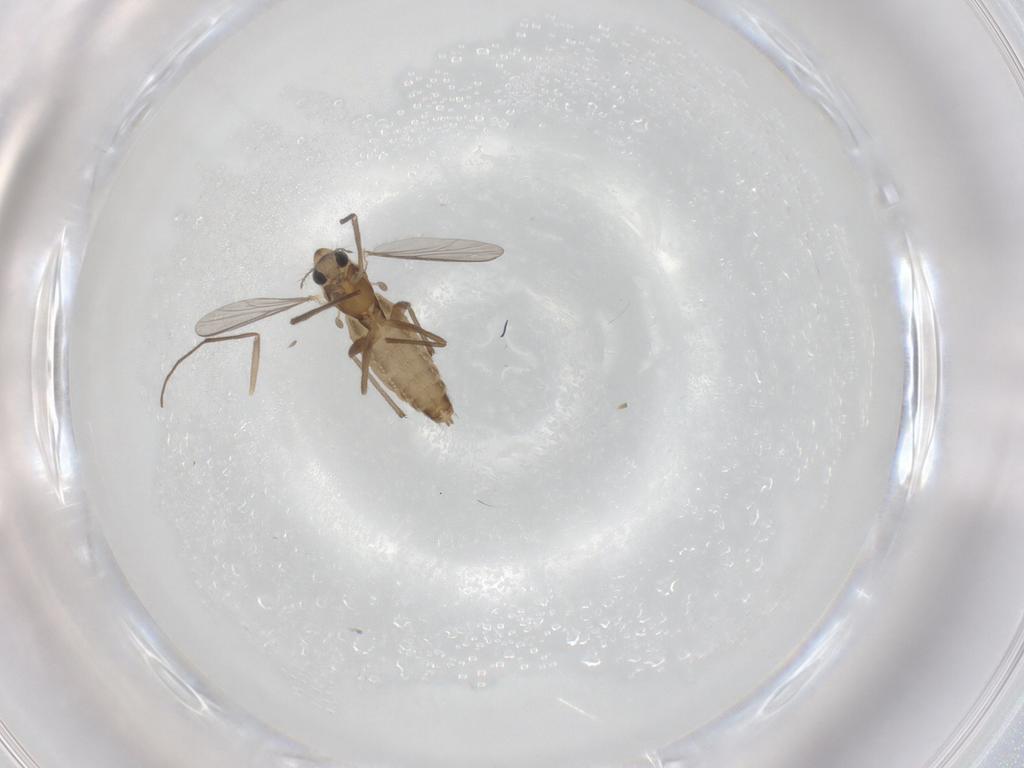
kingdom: Animalia
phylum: Arthropoda
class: Insecta
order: Diptera
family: Chironomidae
